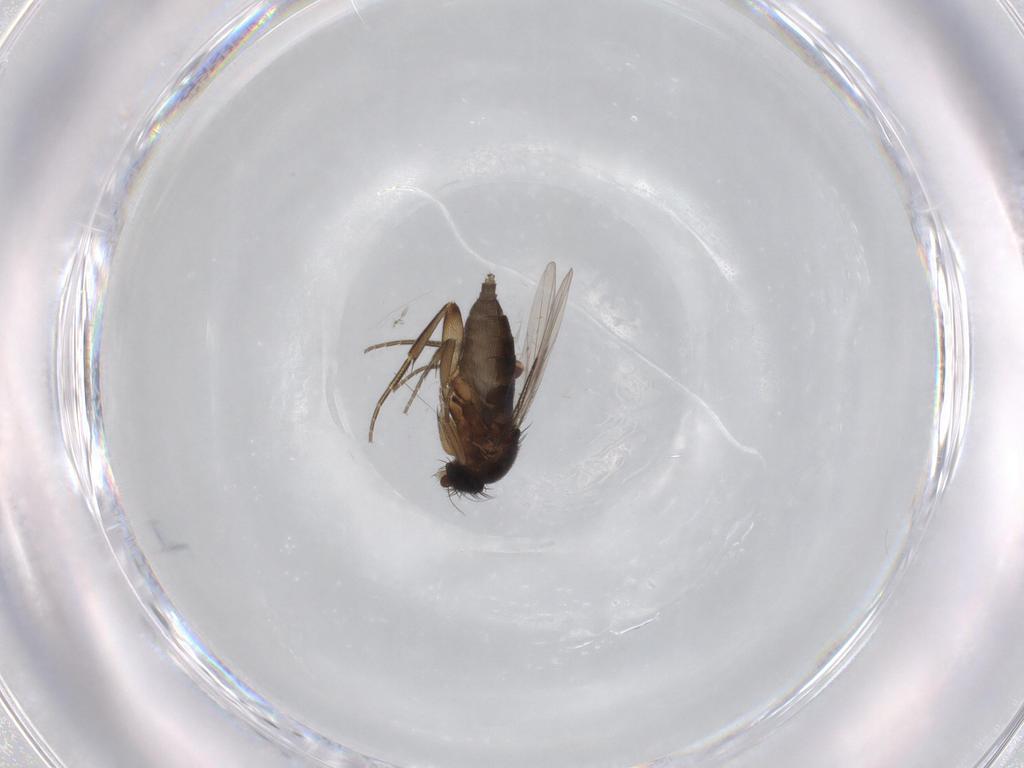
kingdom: Animalia
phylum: Arthropoda
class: Insecta
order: Diptera
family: Phoridae
